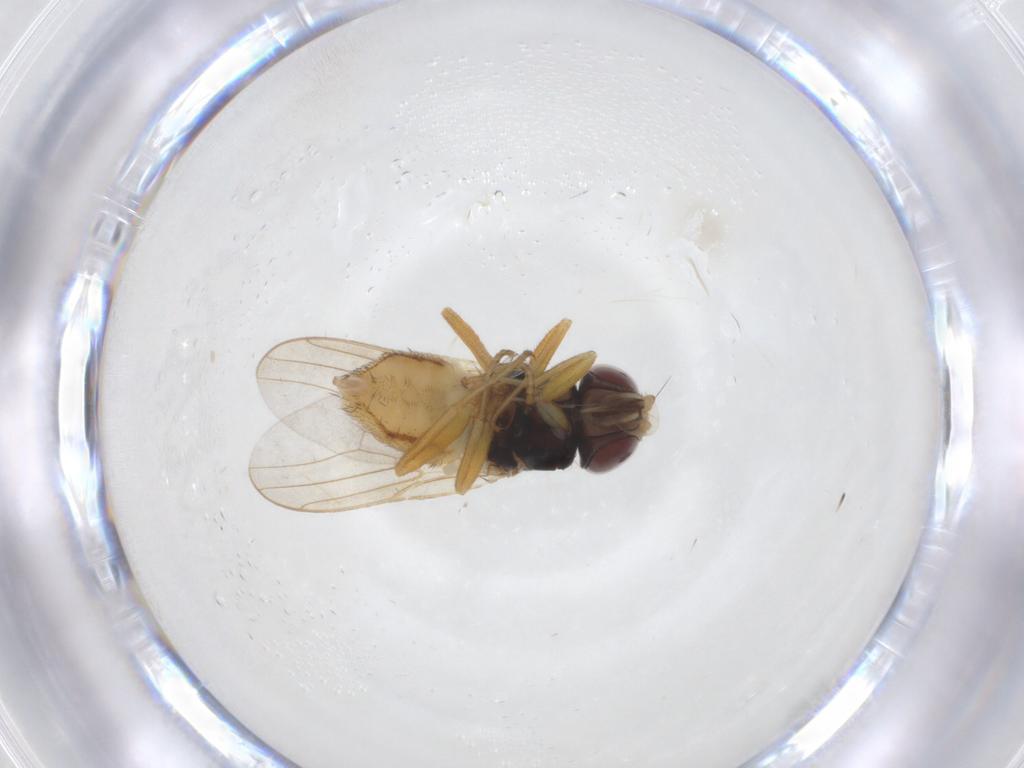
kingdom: Animalia
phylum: Arthropoda
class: Insecta
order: Diptera
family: Chloropidae
